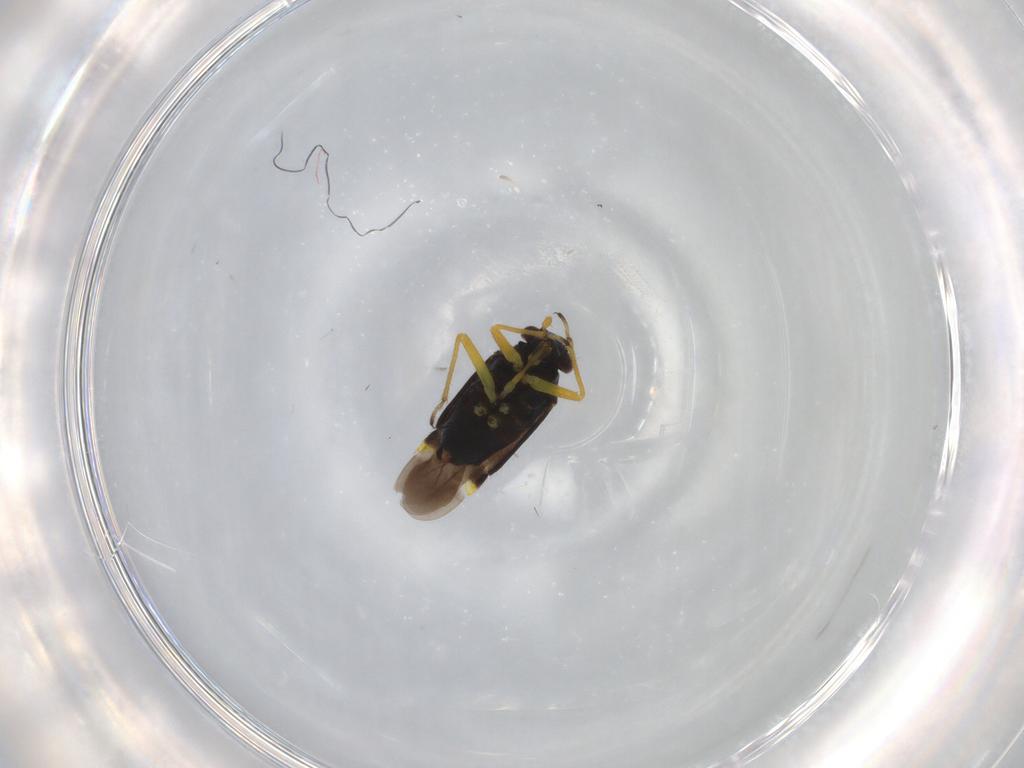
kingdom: Animalia
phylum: Arthropoda
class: Insecta
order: Hemiptera
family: Miridae
